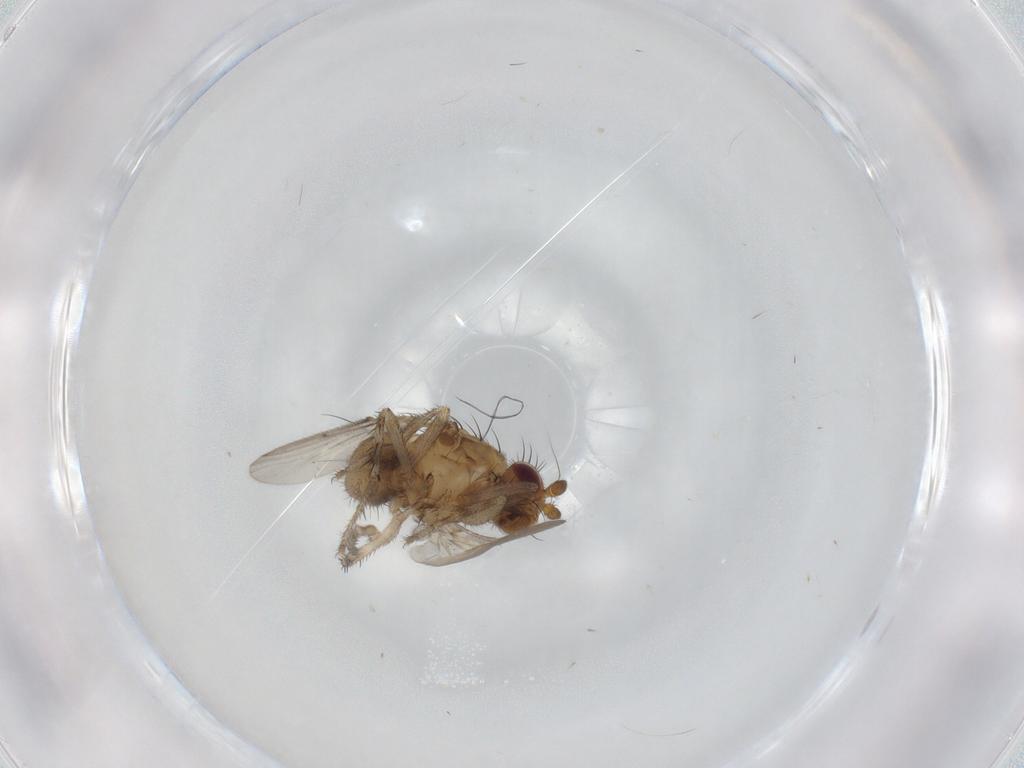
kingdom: Animalia
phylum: Arthropoda
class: Insecta
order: Diptera
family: Sphaeroceridae
